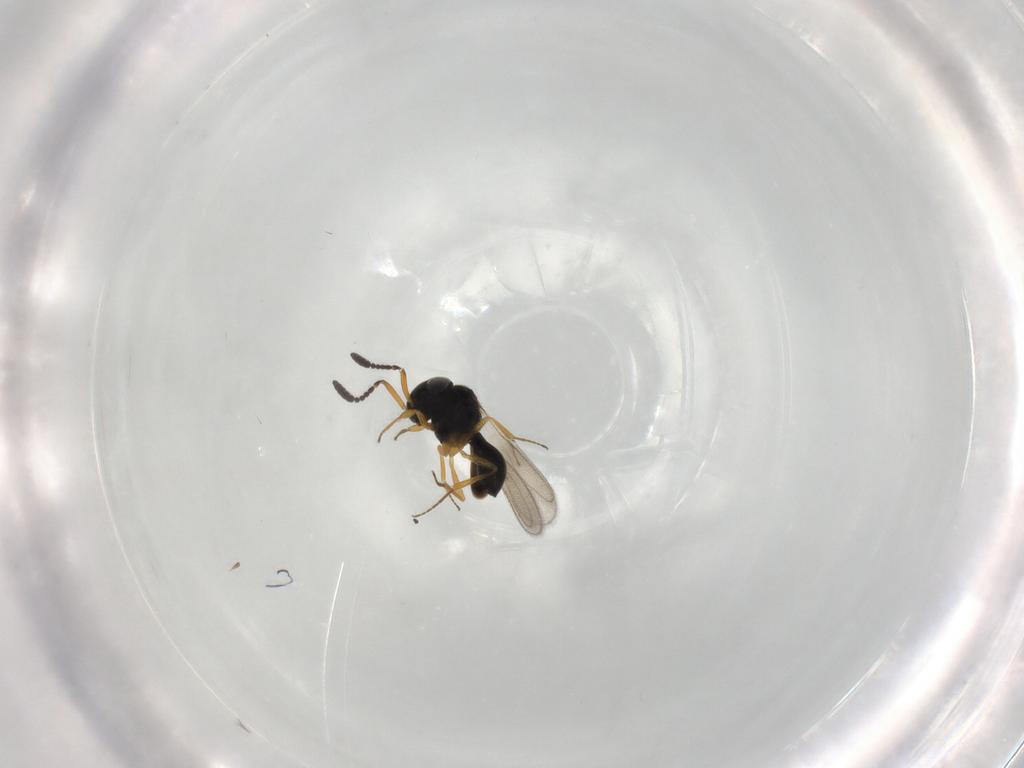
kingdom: Animalia
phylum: Arthropoda
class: Insecta
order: Hymenoptera
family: Scelionidae
